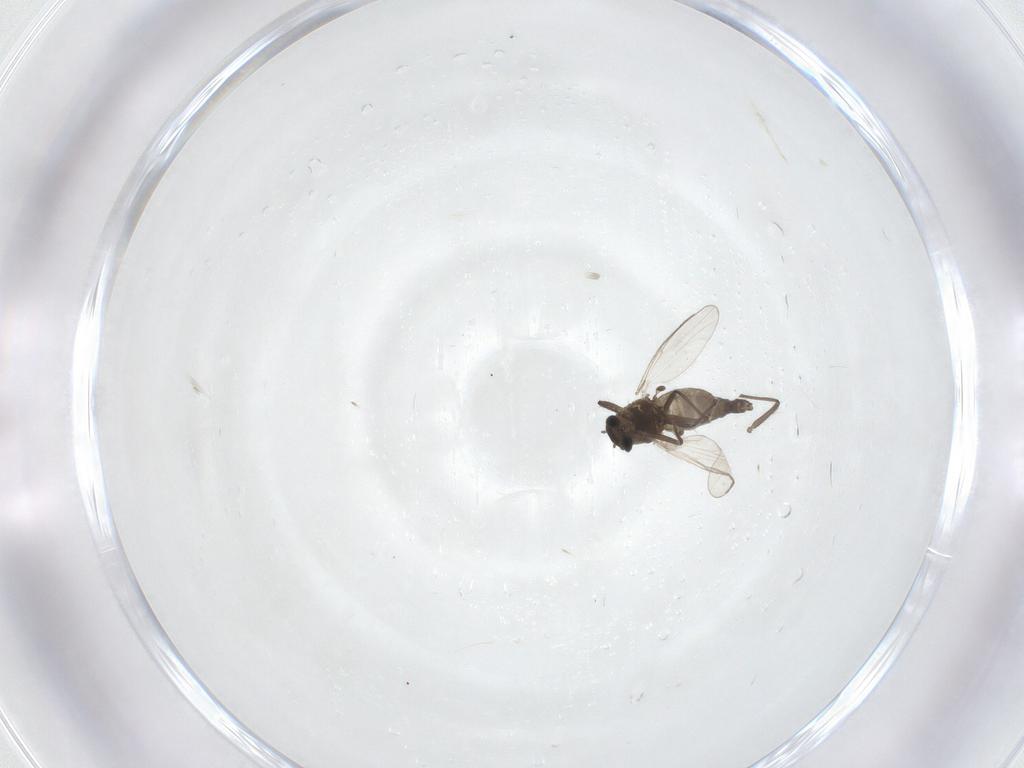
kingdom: Animalia
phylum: Arthropoda
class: Insecta
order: Diptera
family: Chironomidae
